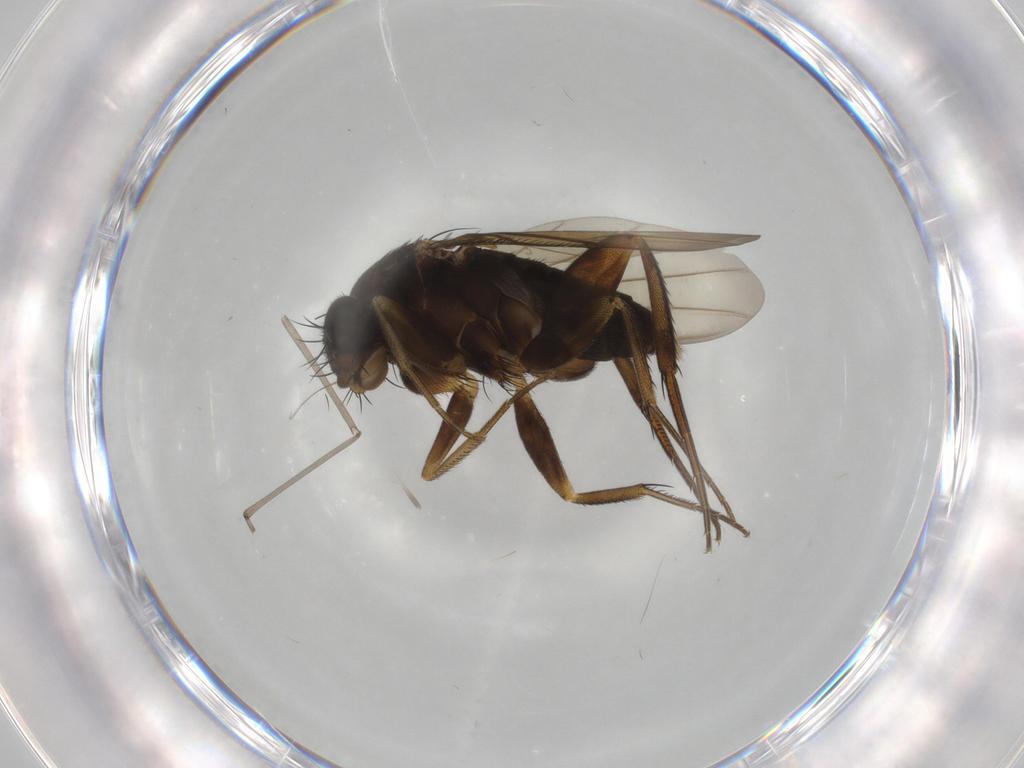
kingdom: Animalia
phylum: Arthropoda
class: Insecta
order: Diptera
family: Phoridae
